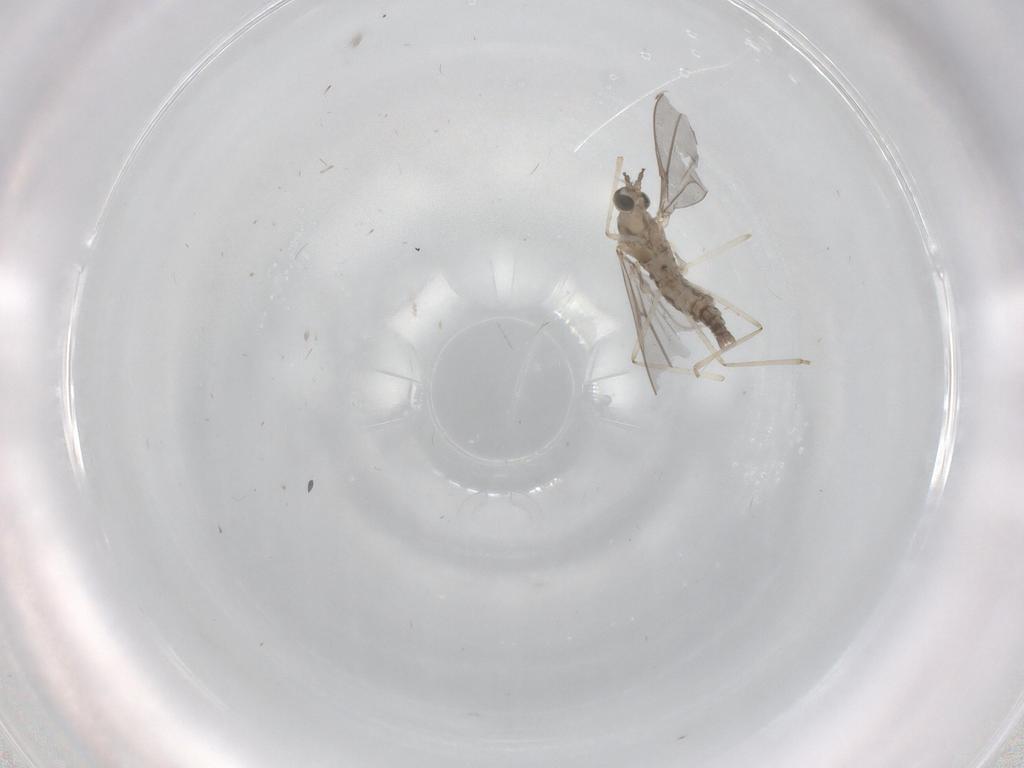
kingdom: Animalia
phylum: Arthropoda
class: Insecta
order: Diptera
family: Cecidomyiidae
